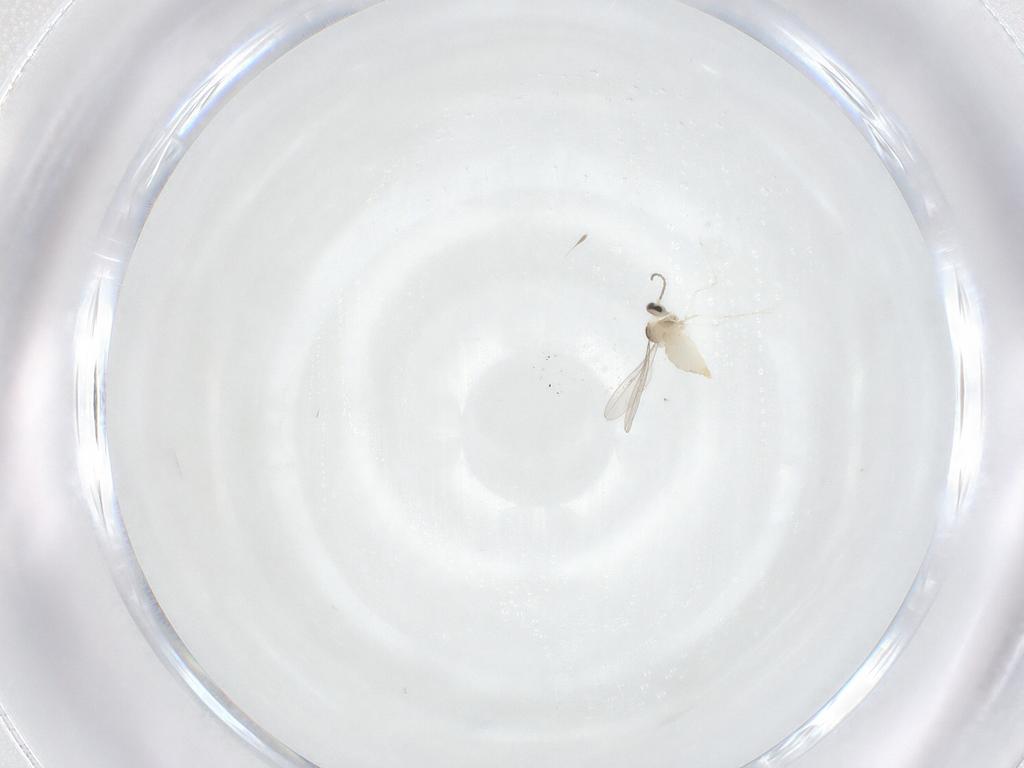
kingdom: Animalia
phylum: Arthropoda
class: Insecta
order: Diptera
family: Cecidomyiidae
